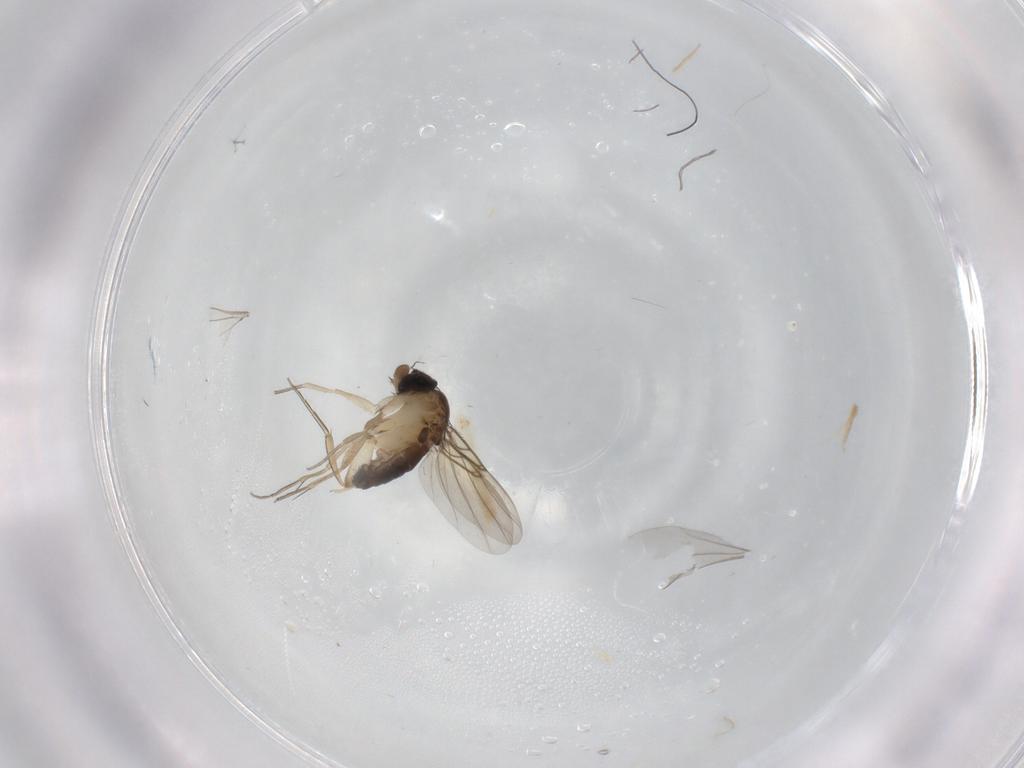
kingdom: Animalia
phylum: Arthropoda
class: Insecta
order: Diptera
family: Phoridae
